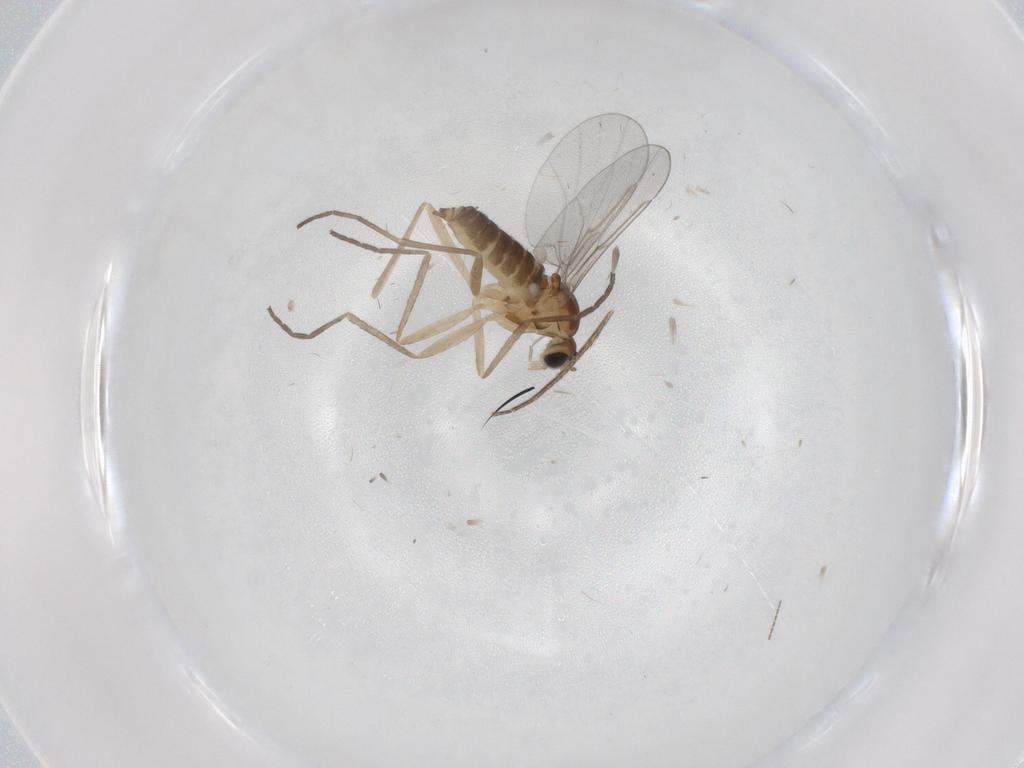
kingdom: Animalia
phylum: Arthropoda
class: Insecta
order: Diptera
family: Cecidomyiidae
